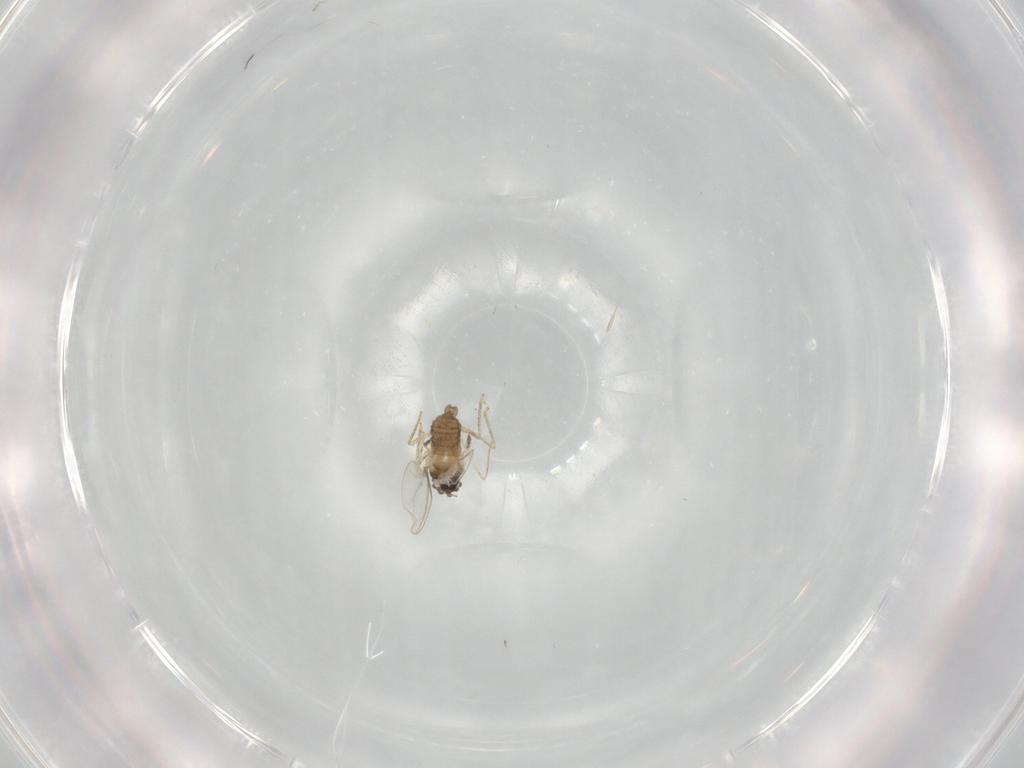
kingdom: Animalia
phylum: Arthropoda
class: Insecta
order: Diptera
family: Cecidomyiidae
